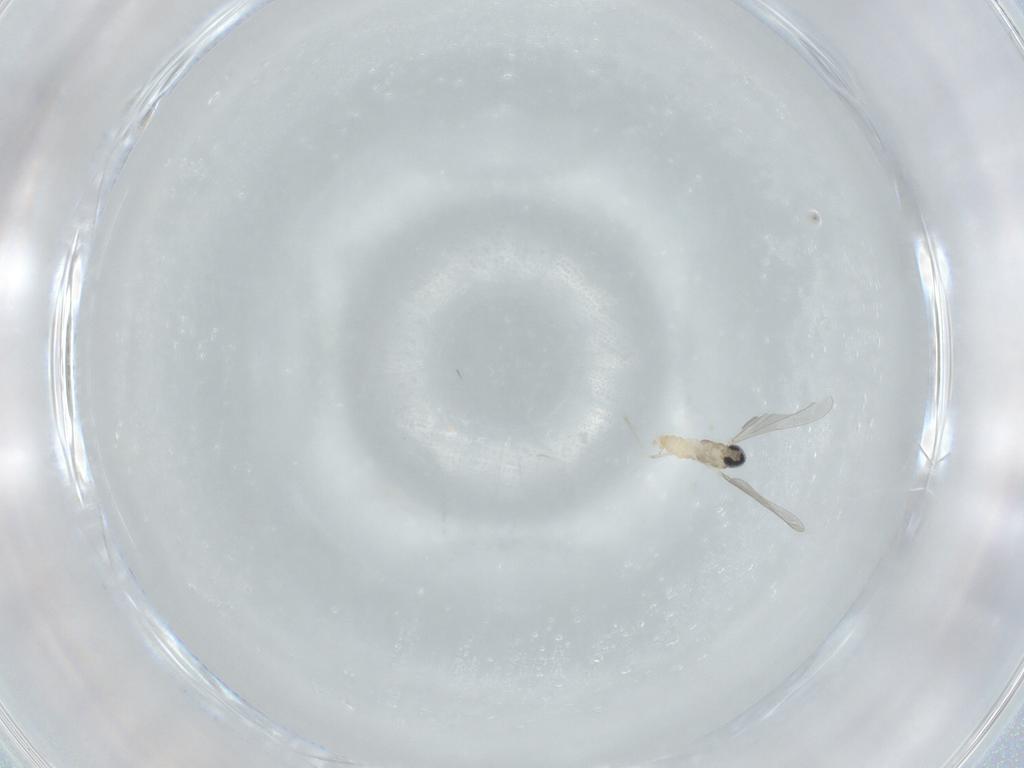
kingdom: Animalia
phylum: Arthropoda
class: Insecta
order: Diptera
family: Cecidomyiidae
